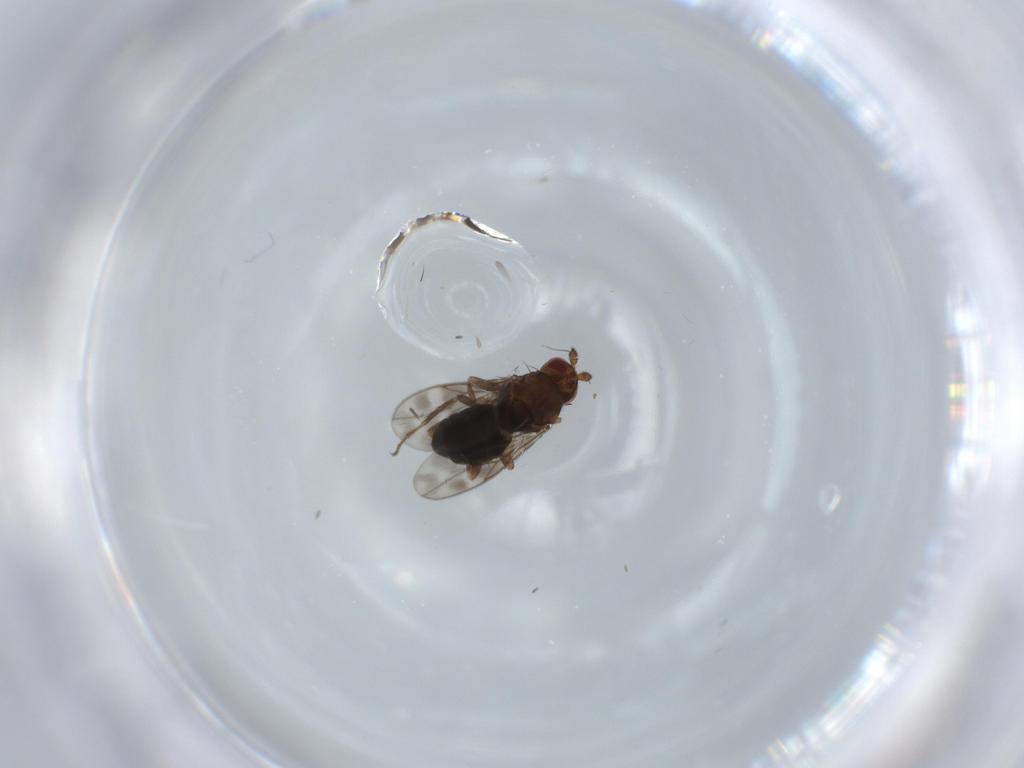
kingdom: Animalia
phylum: Arthropoda
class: Insecta
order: Diptera
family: Sphaeroceridae
